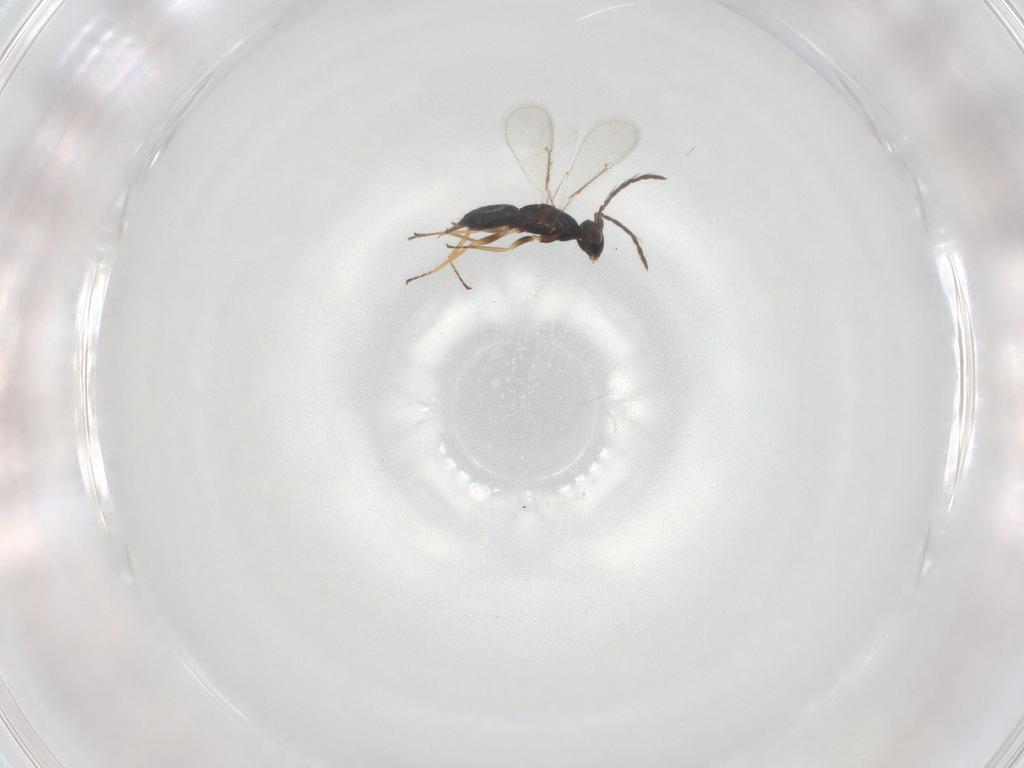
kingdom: Animalia
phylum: Arthropoda
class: Insecta
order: Hymenoptera
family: Eulophidae
